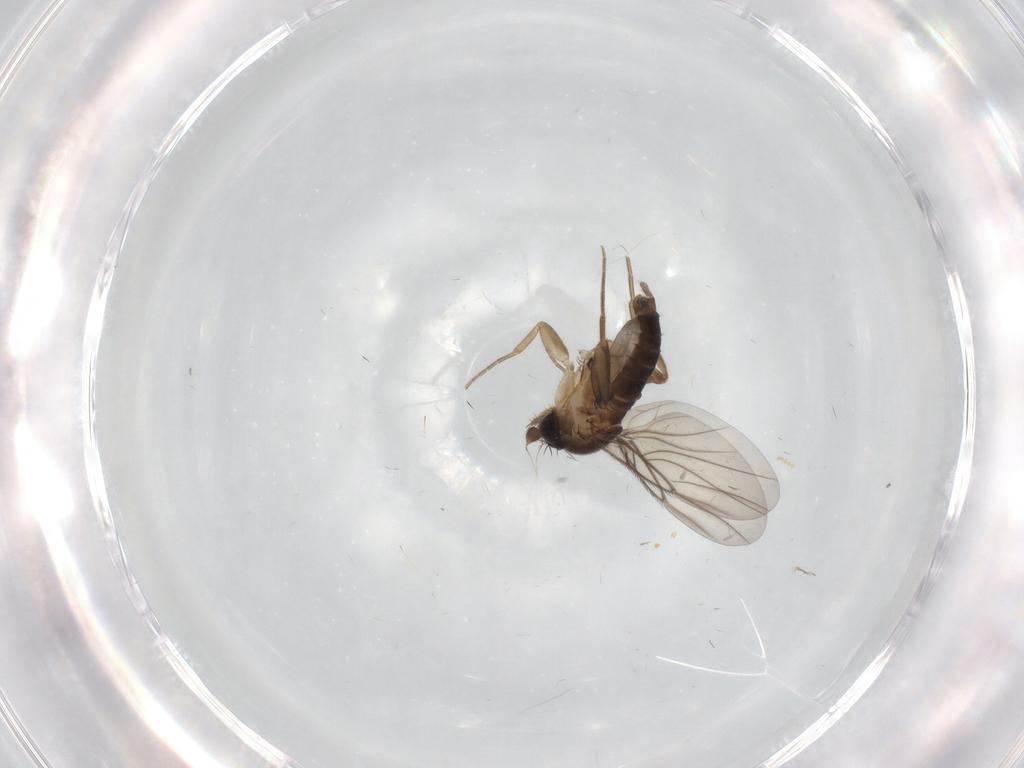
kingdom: Animalia
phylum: Arthropoda
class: Insecta
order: Diptera
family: Phoridae
